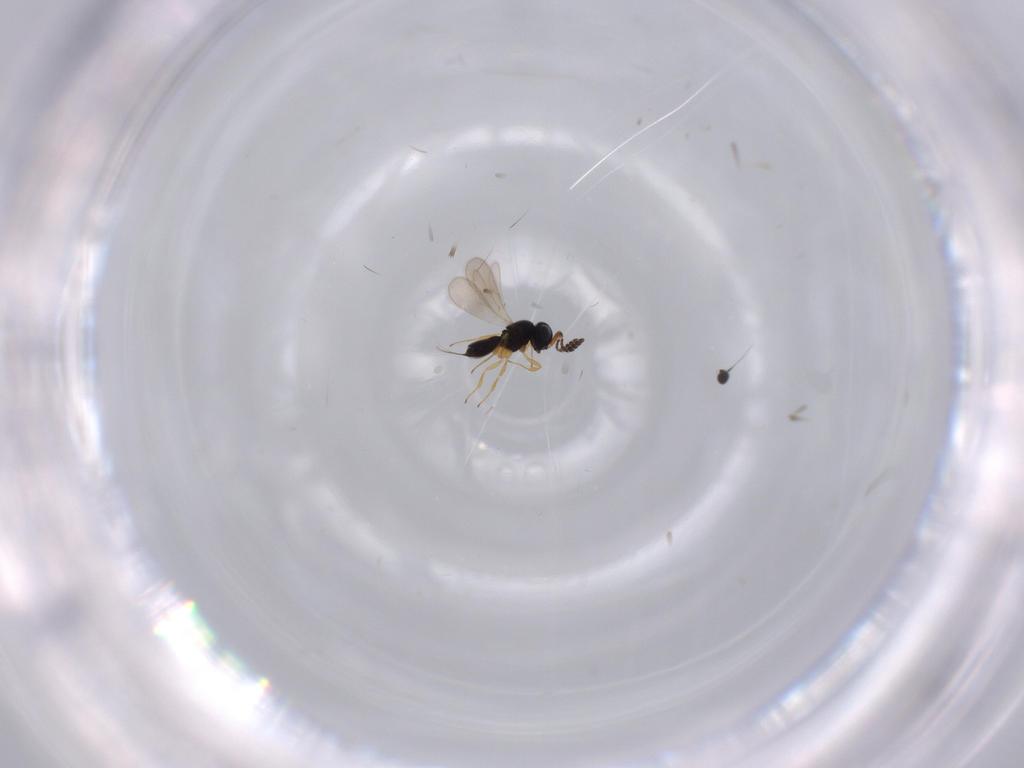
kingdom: Animalia
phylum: Arthropoda
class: Insecta
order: Hymenoptera
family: Scelionidae
